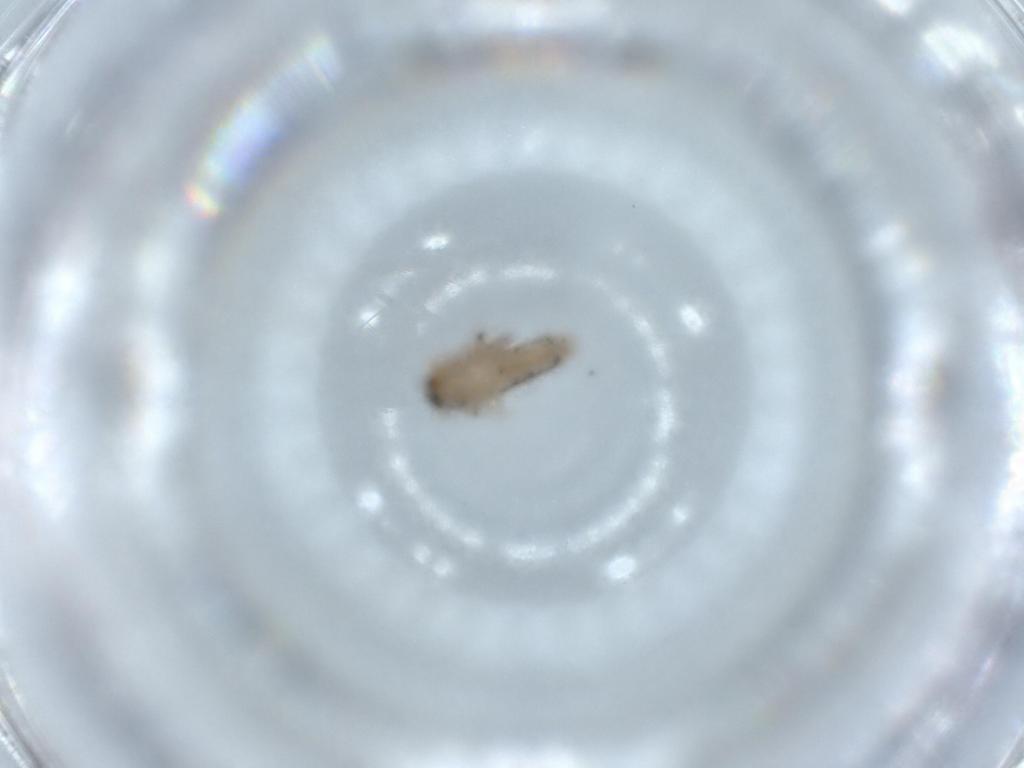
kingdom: Animalia
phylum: Arthropoda
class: Collembola
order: Entomobryomorpha
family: Entomobryidae
